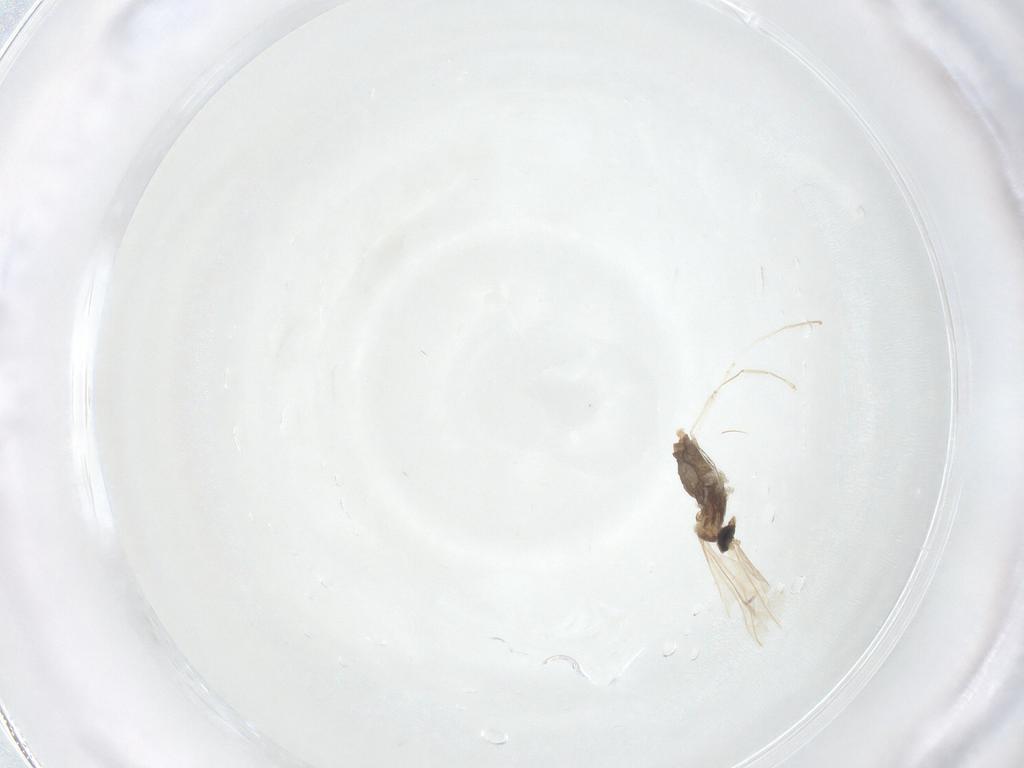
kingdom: Animalia
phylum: Arthropoda
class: Insecta
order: Diptera
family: Cecidomyiidae
